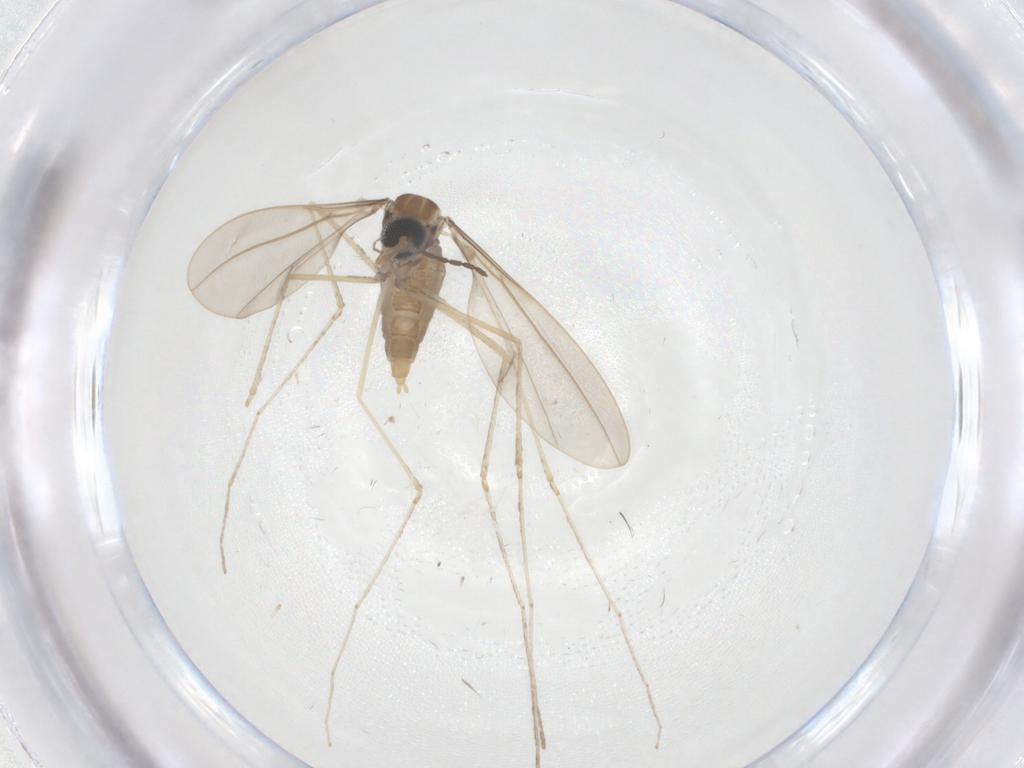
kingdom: Animalia
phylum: Arthropoda
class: Insecta
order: Diptera
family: Cecidomyiidae
